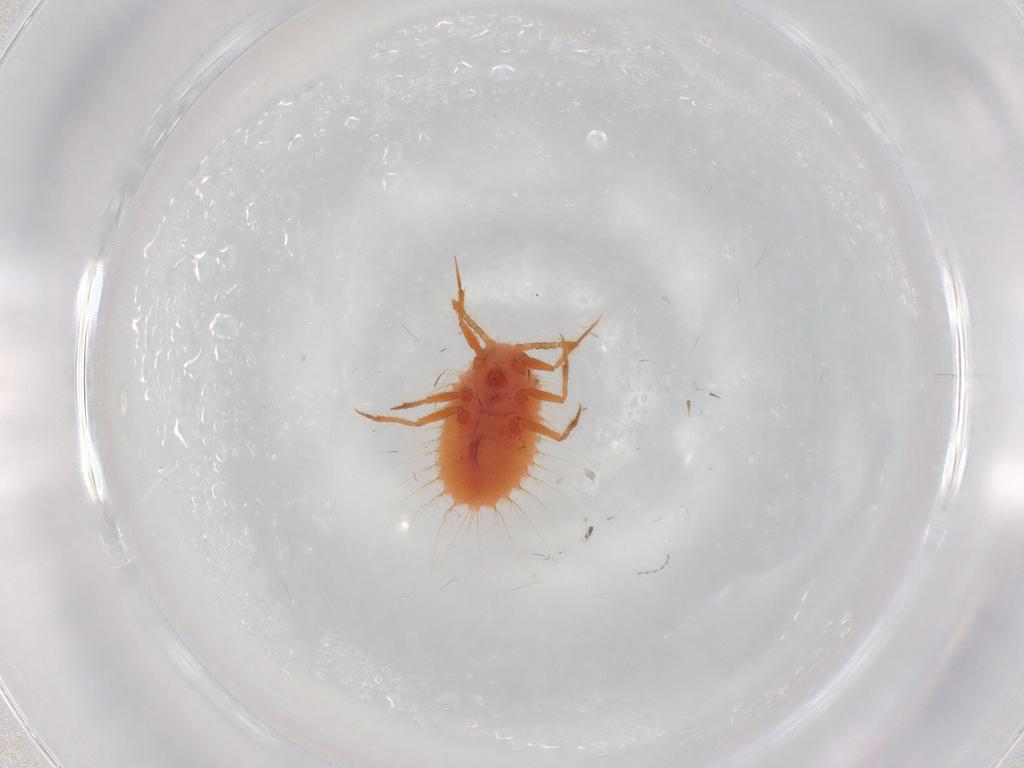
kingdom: Animalia
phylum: Arthropoda
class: Insecta
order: Hemiptera
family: Coccoidea_incertae_sedis
